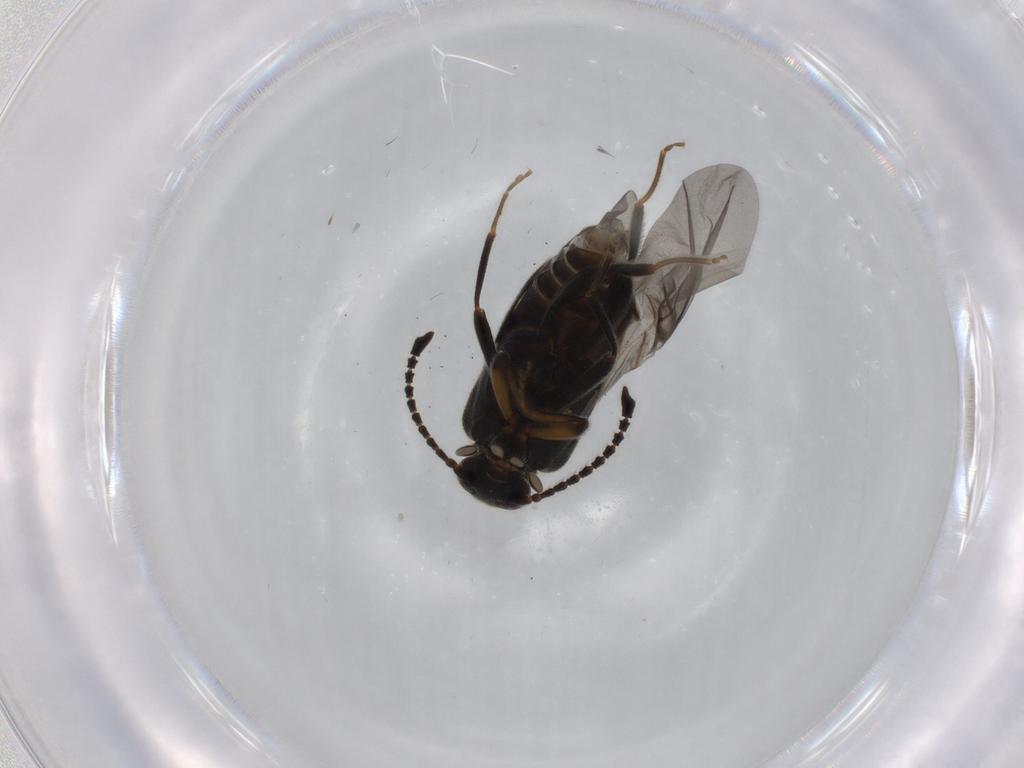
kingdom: Animalia
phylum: Arthropoda
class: Insecta
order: Coleoptera
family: Aderidae
